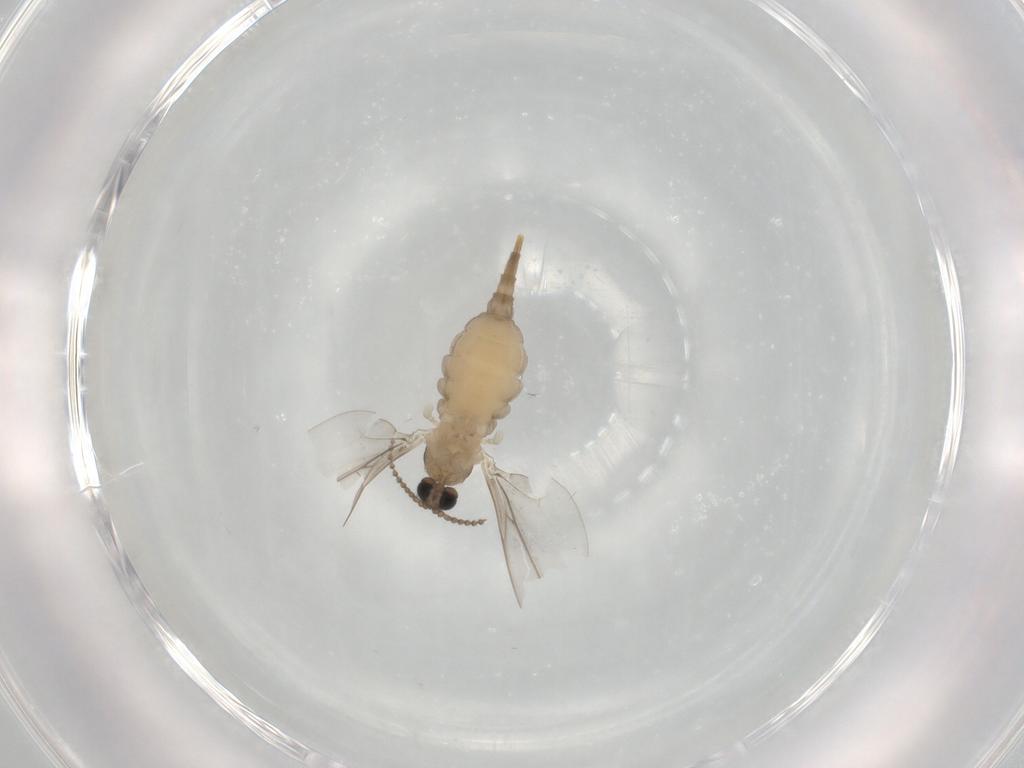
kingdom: Animalia
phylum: Arthropoda
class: Insecta
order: Diptera
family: Cecidomyiidae
